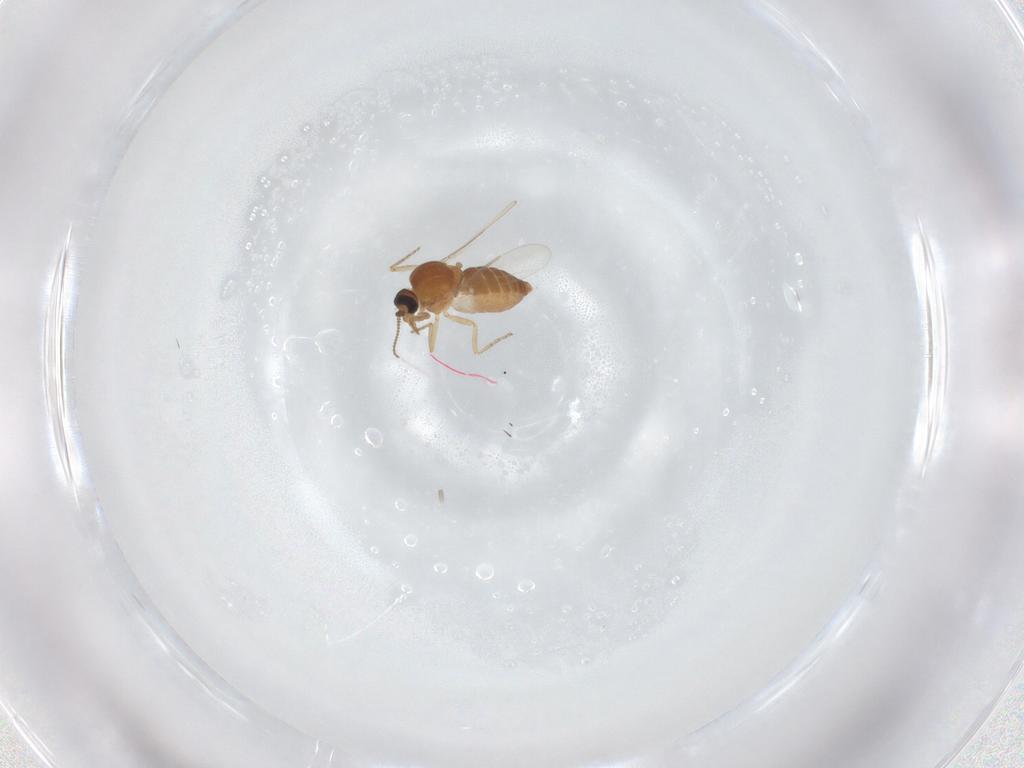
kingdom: Animalia
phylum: Arthropoda
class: Insecta
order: Diptera
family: Ceratopogonidae
